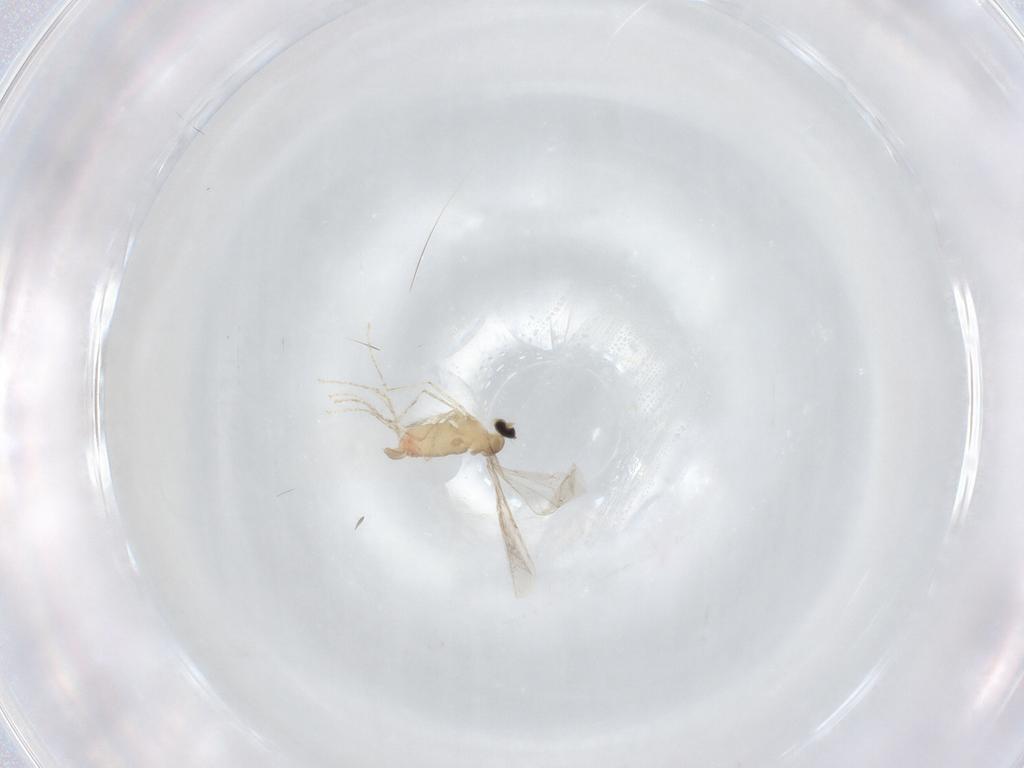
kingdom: Animalia
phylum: Arthropoda
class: Insecta
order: Diptera
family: Cecidomyiidae
